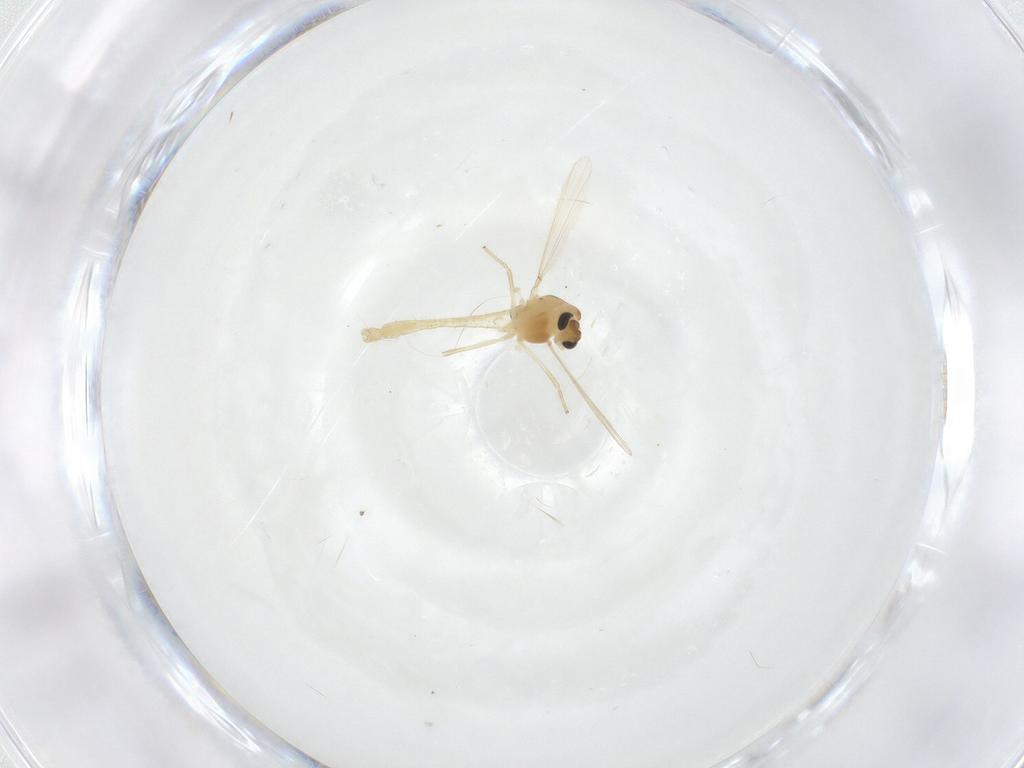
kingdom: Animalia
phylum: Arthropoda
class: Insecta
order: Diptera
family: Chironomidae
